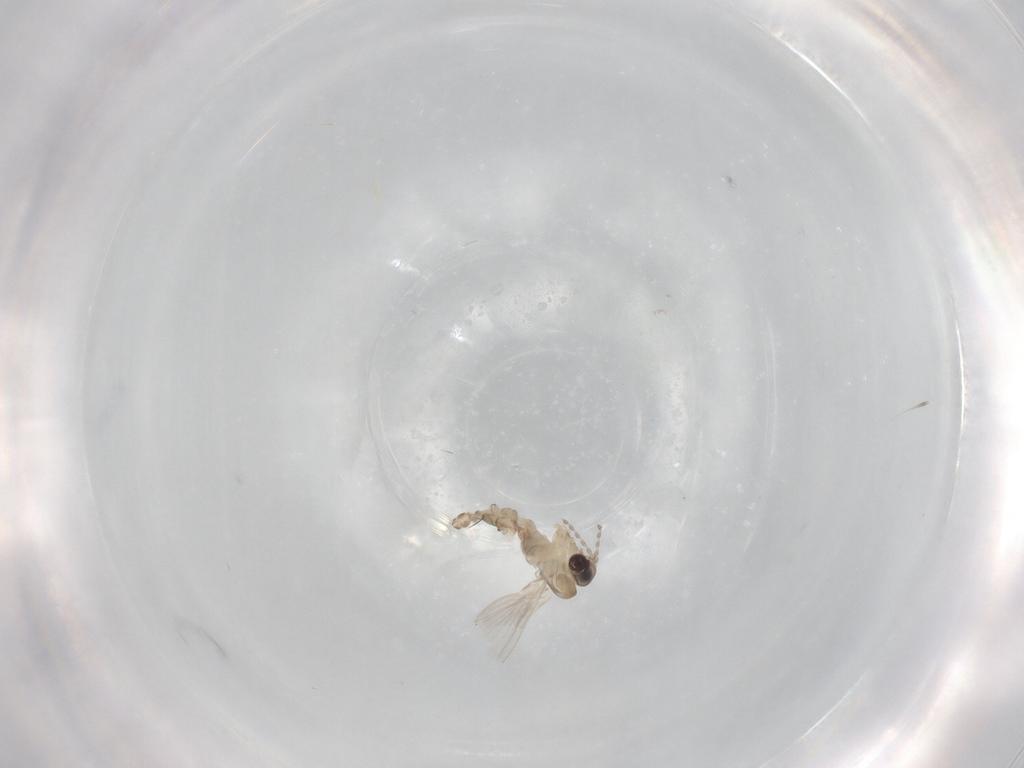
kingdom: Animalia
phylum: Arthropoda
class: Insecta
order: Diptera
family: Psychodidae
